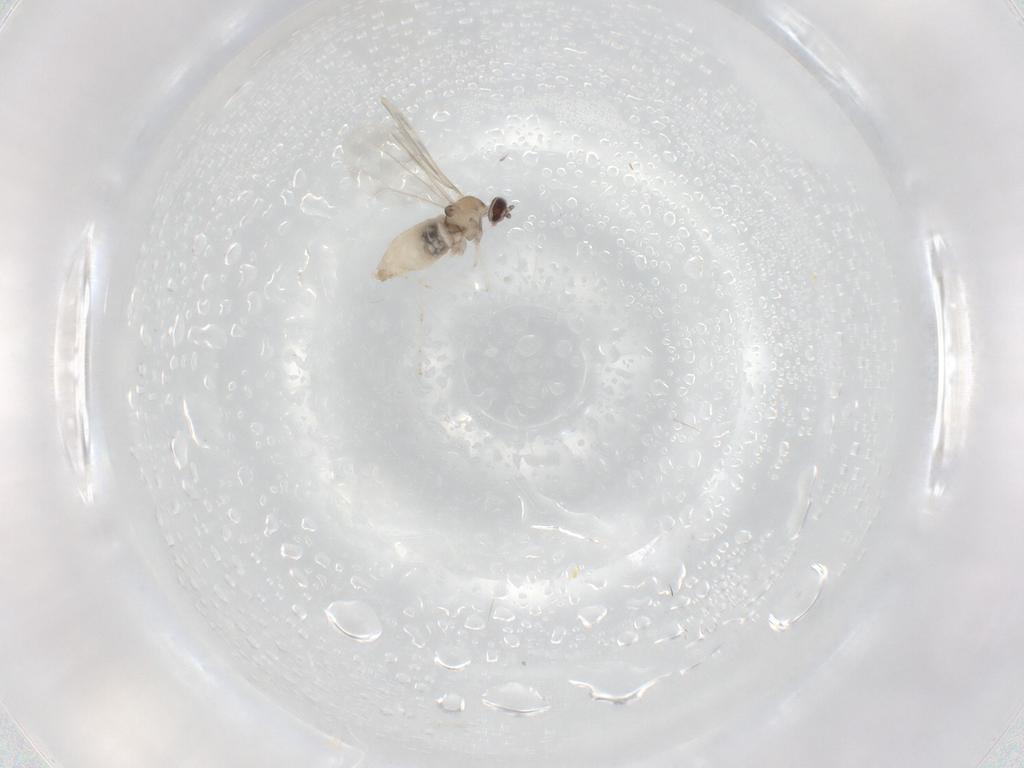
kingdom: Animalia
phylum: Arthropoda
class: Insecta
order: Diptera
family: Cecidomyiidae
